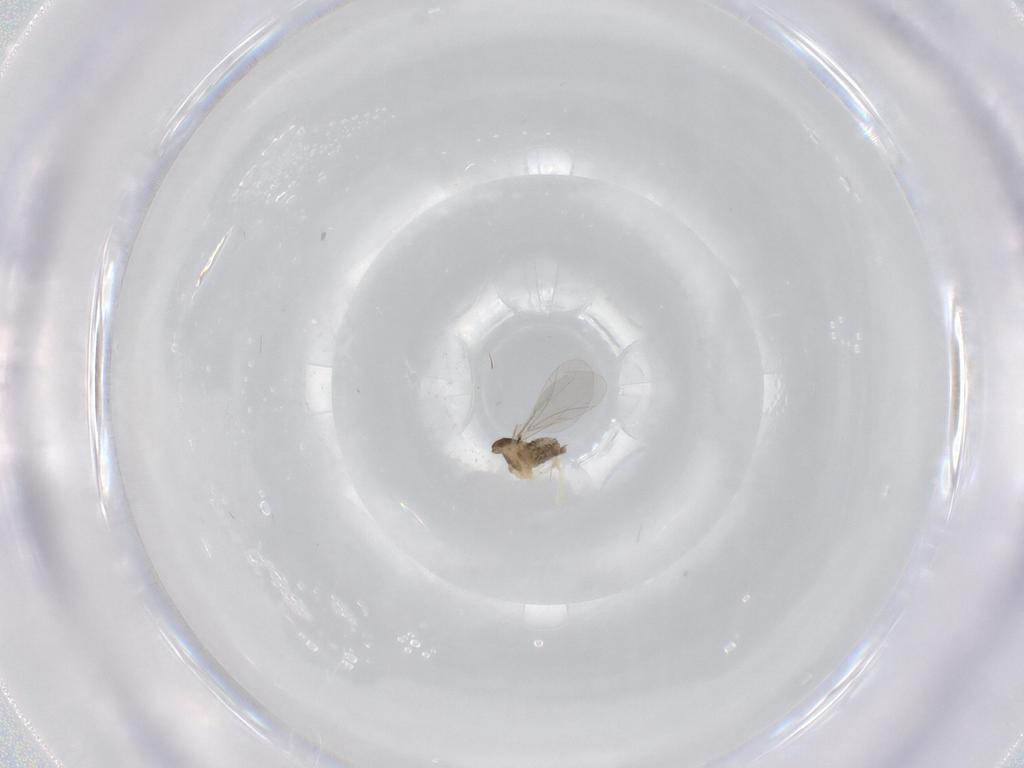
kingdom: Animalia
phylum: Arthropoda
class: Insecta
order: Diptera
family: Cecidomyiidae
